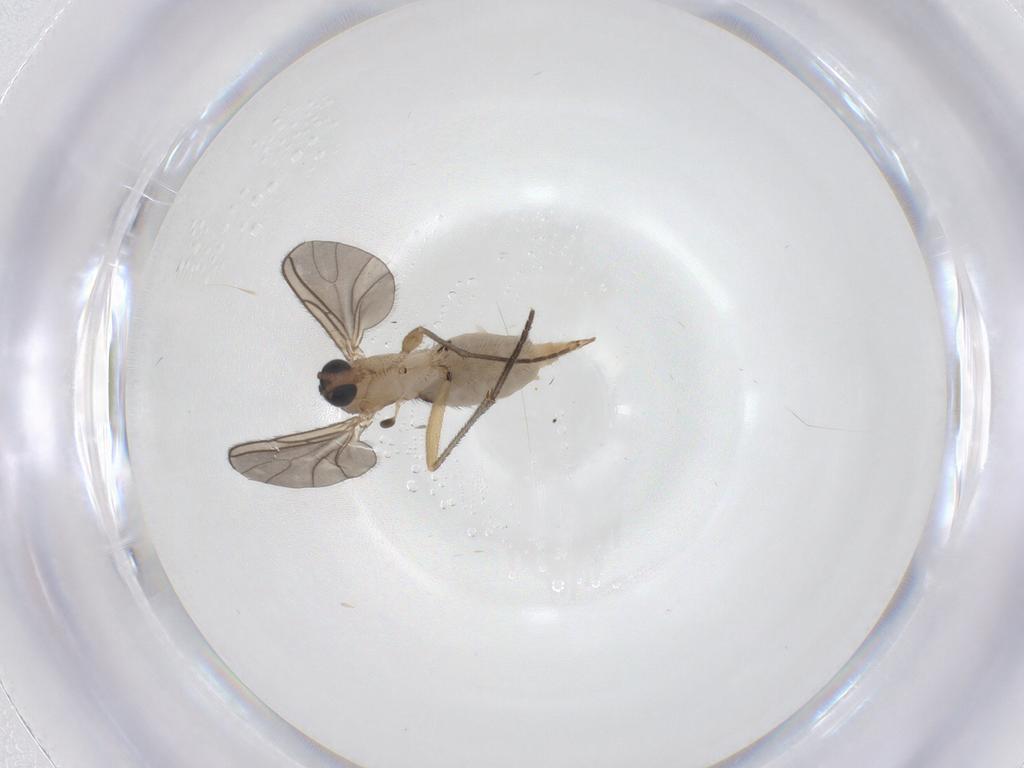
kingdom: Animalia
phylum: Arthropoda
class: Insecta
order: Diptera
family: Sciaridae
